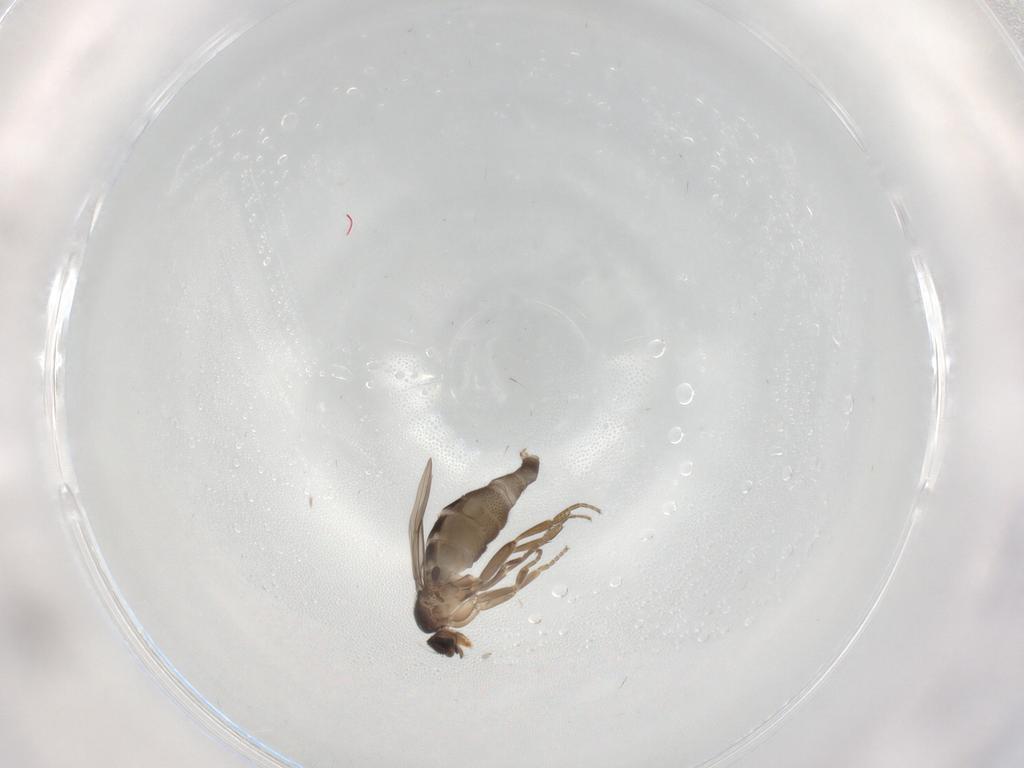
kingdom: Animalia
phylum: Arthropoda
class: Insecta
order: Diptera
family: Phoridae
